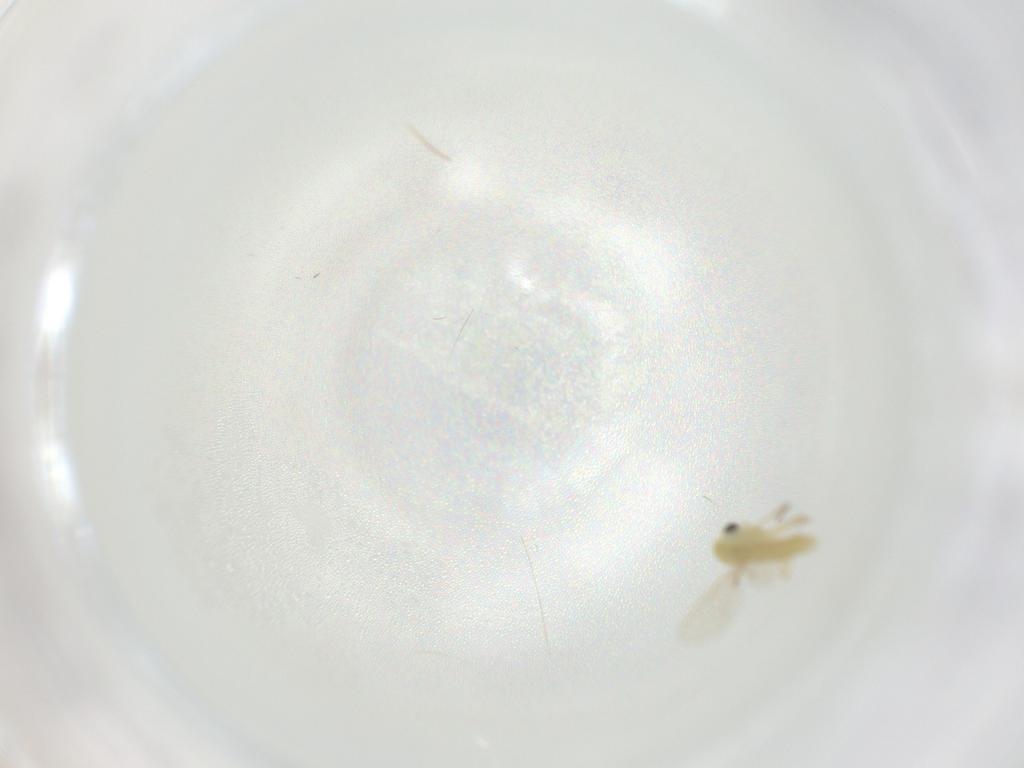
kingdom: Animalia
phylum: Arthropoda
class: Insecta
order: Diptera
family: Chironomidae
